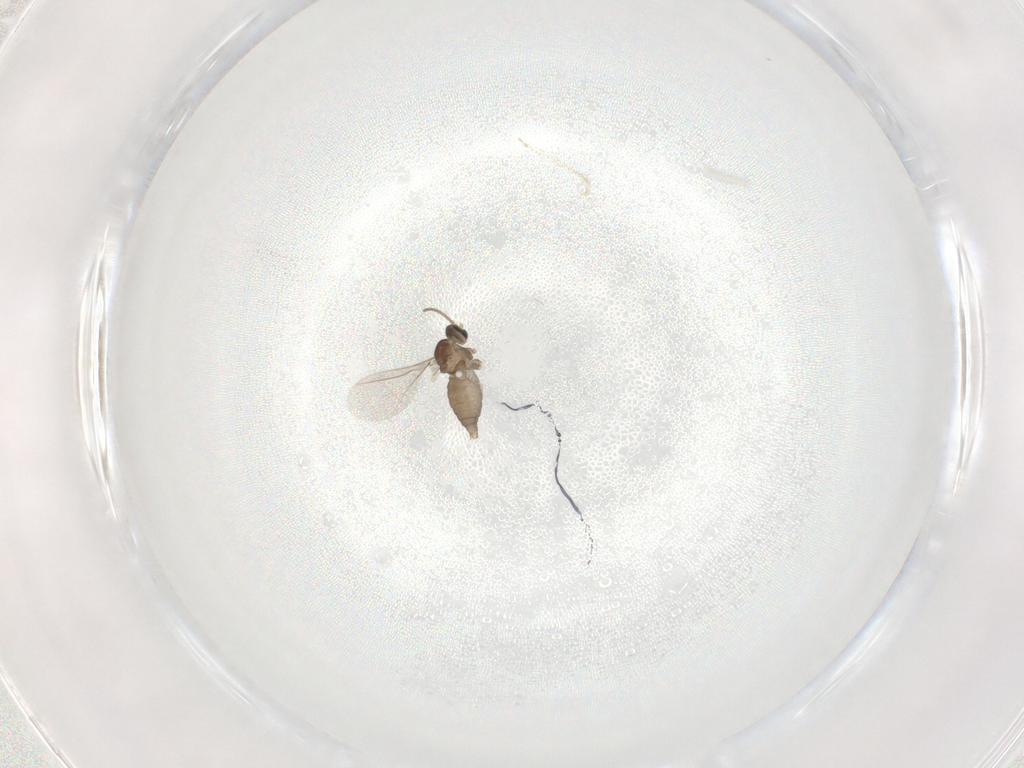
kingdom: Animalia
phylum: Arthropoda
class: Insecta
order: Diptera
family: Cecidomyiidae
